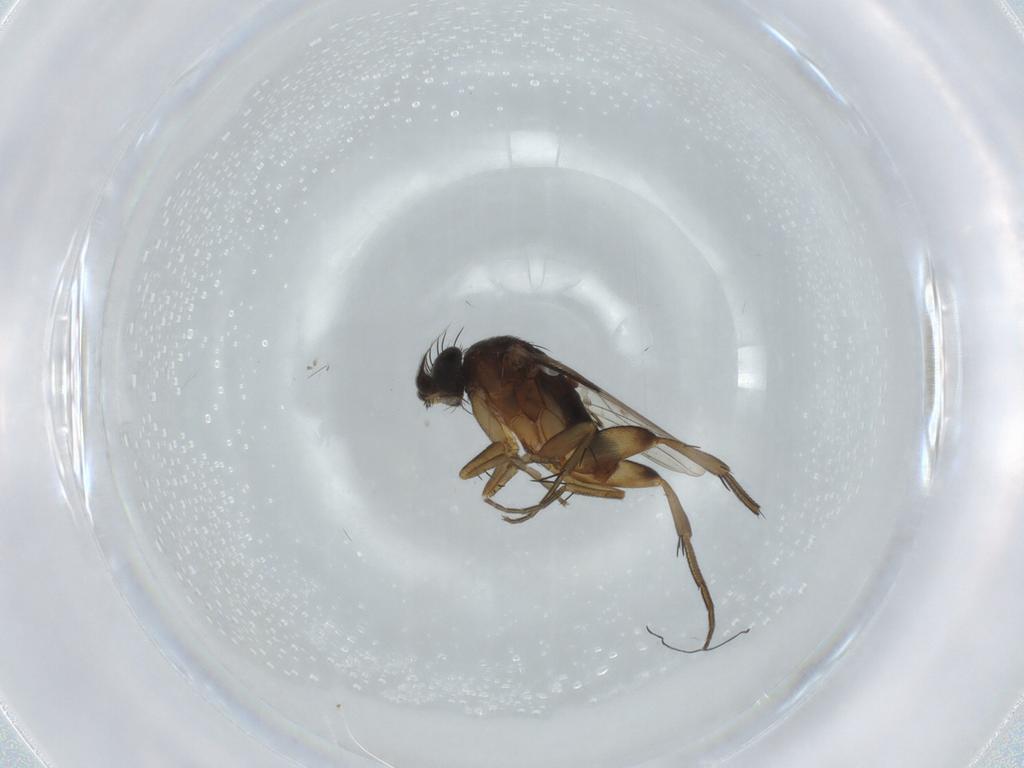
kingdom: Animalia
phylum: Arthropoda
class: Insecta
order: Diptera
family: Phoridae
